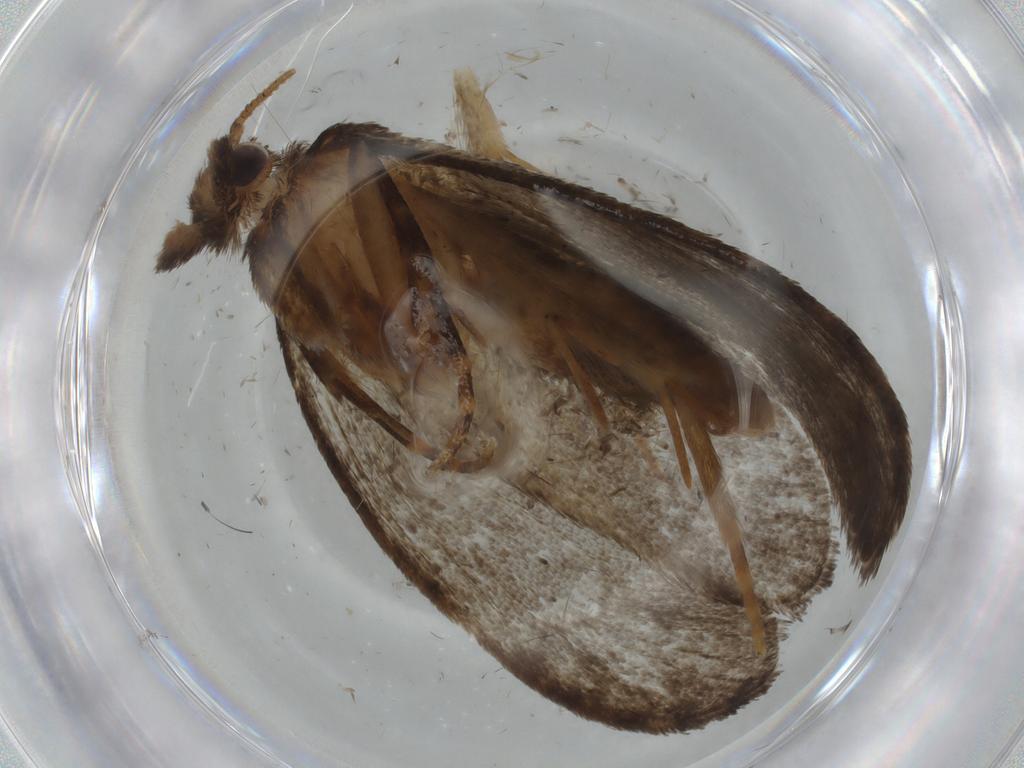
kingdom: Animalia
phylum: Arthropoda
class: Insecta
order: Lepidoptera
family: Tineidae
